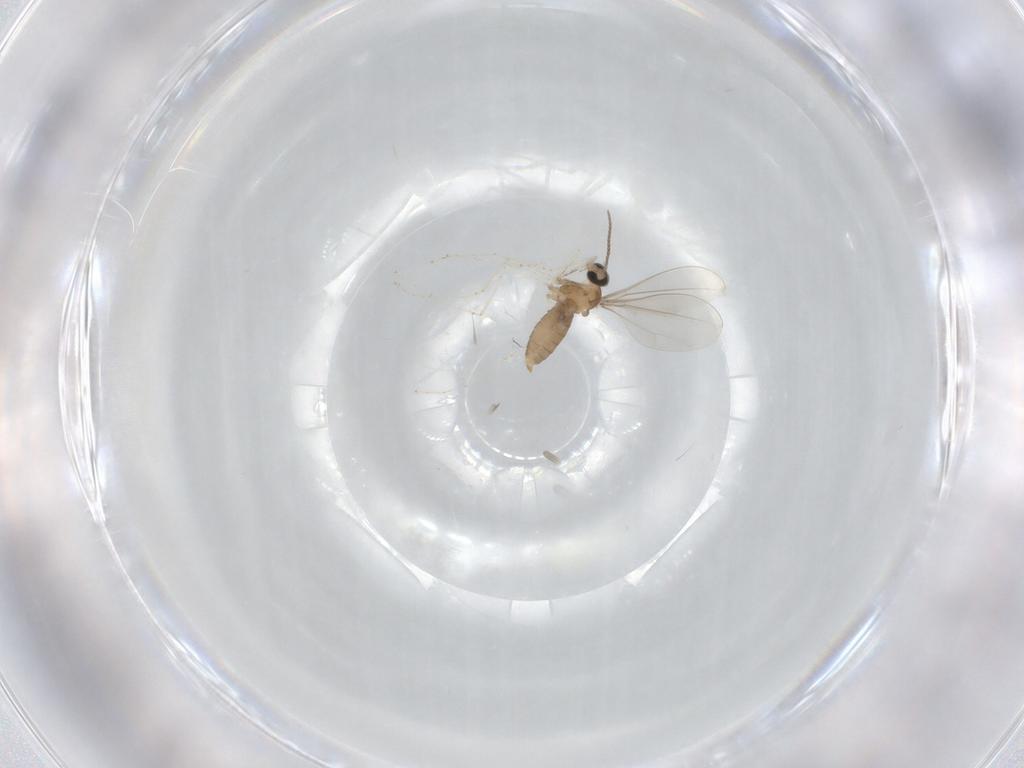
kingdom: Animalia
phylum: Arthropoda
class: Insecta
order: Diptera
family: Cecidomyiidae
